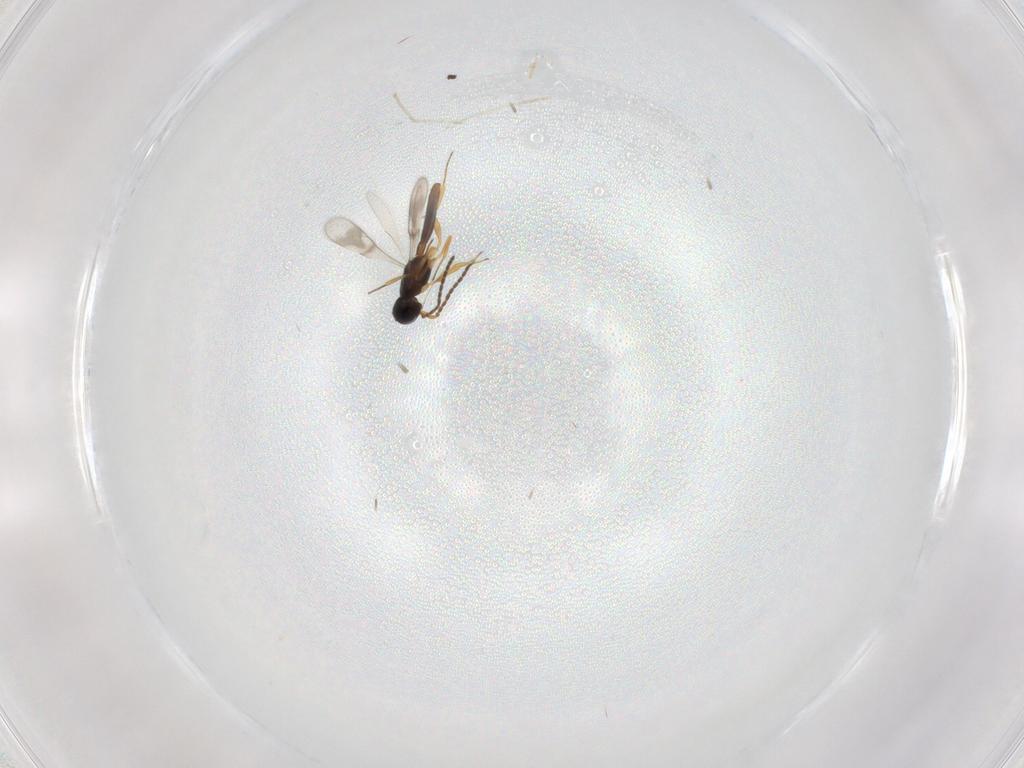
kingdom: Animalia
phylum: Arthropoda
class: Insecta
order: Hymenoptera
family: Scelionidae
